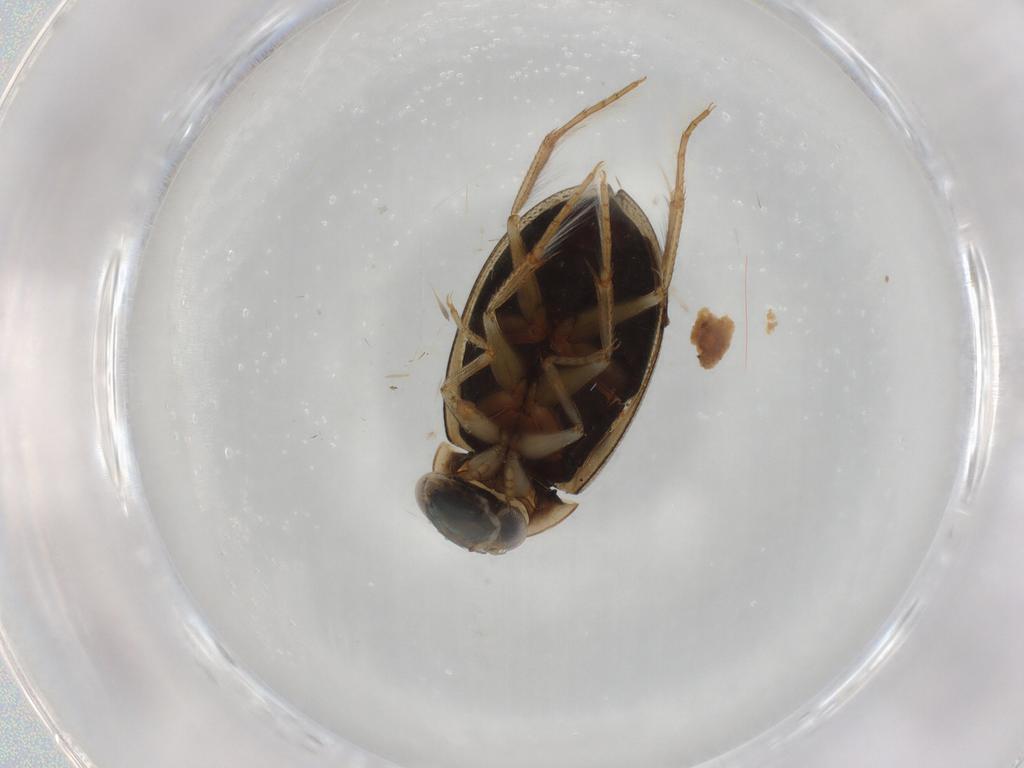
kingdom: Animalia
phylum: Arthropoda
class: Insecta
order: Coleoptera
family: Hydrophilidae
